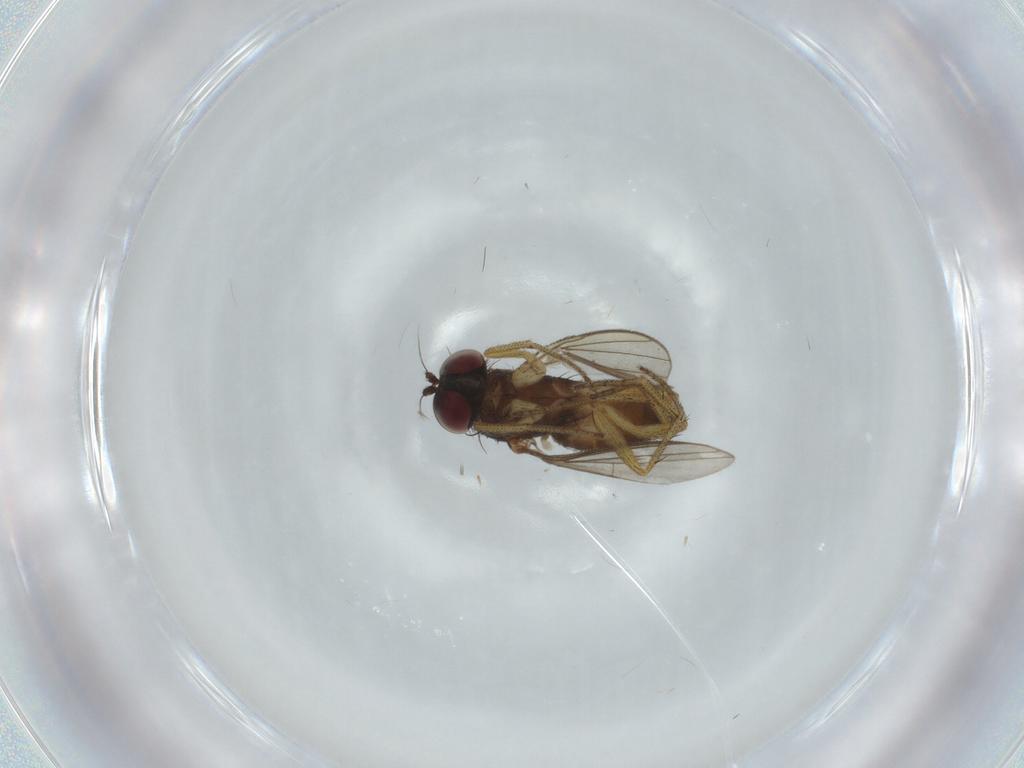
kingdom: Animalia
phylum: Arthropoda
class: Insecta
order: Diptera
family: Dolichopodidae
